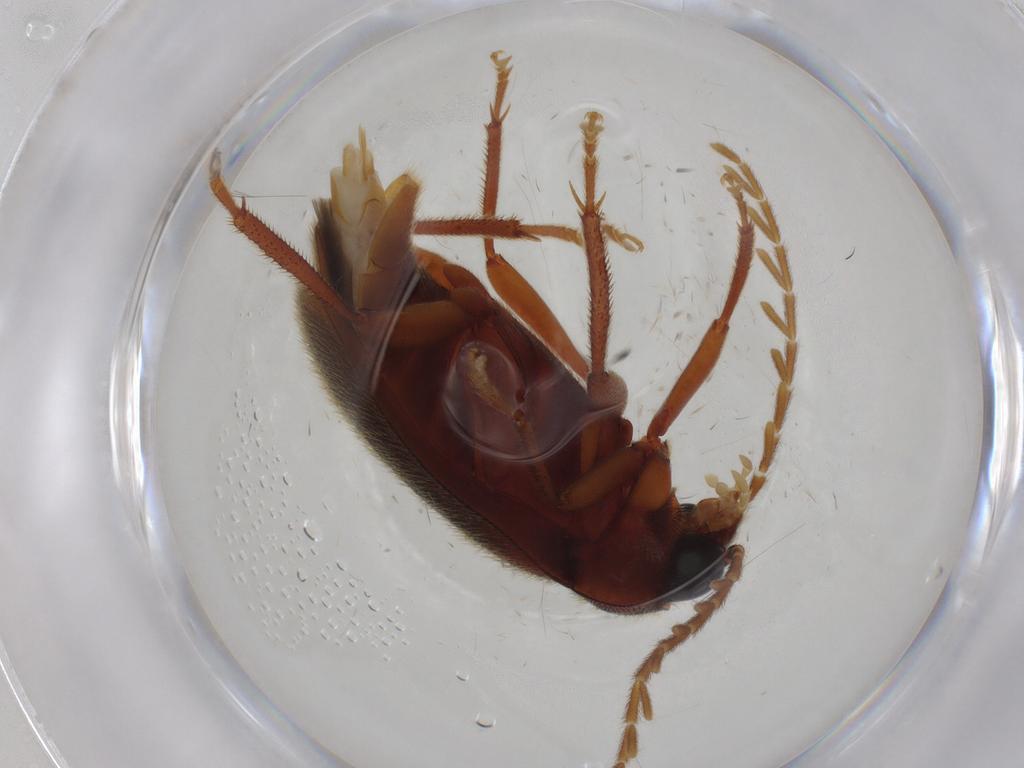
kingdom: Animalia
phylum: Arthropoda
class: Insecta
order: Coleoptera
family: Ptilodactylidae
